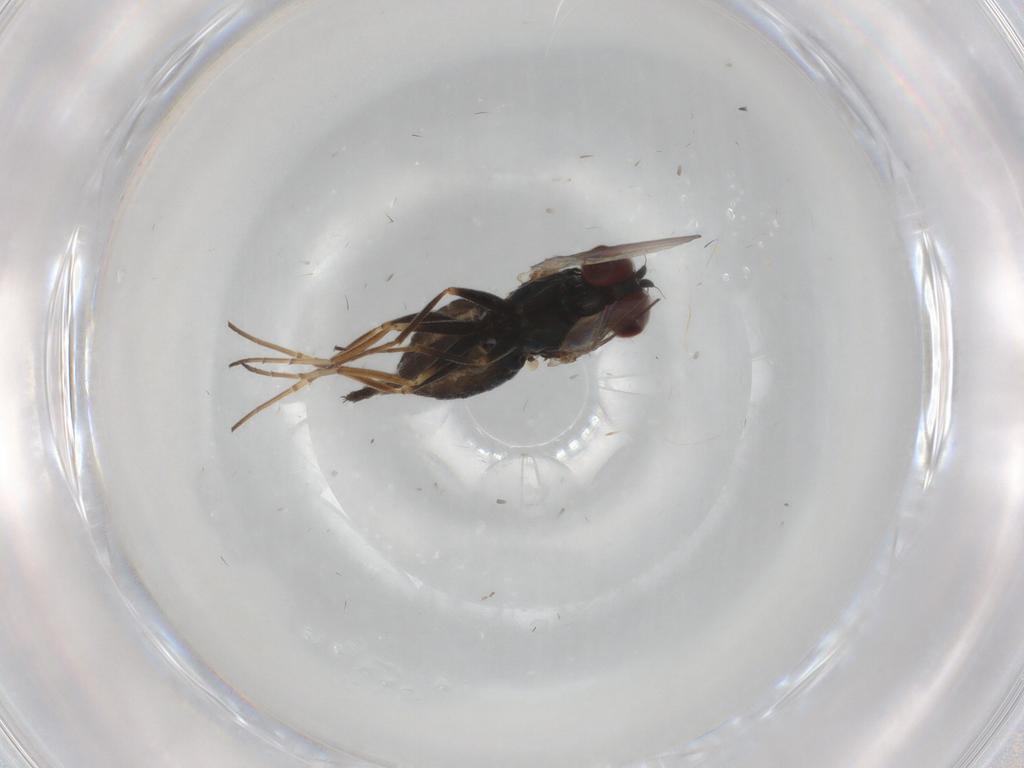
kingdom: Animalia
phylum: Arthropoda
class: Insecta
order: Diptera
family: Dolichopodidae
